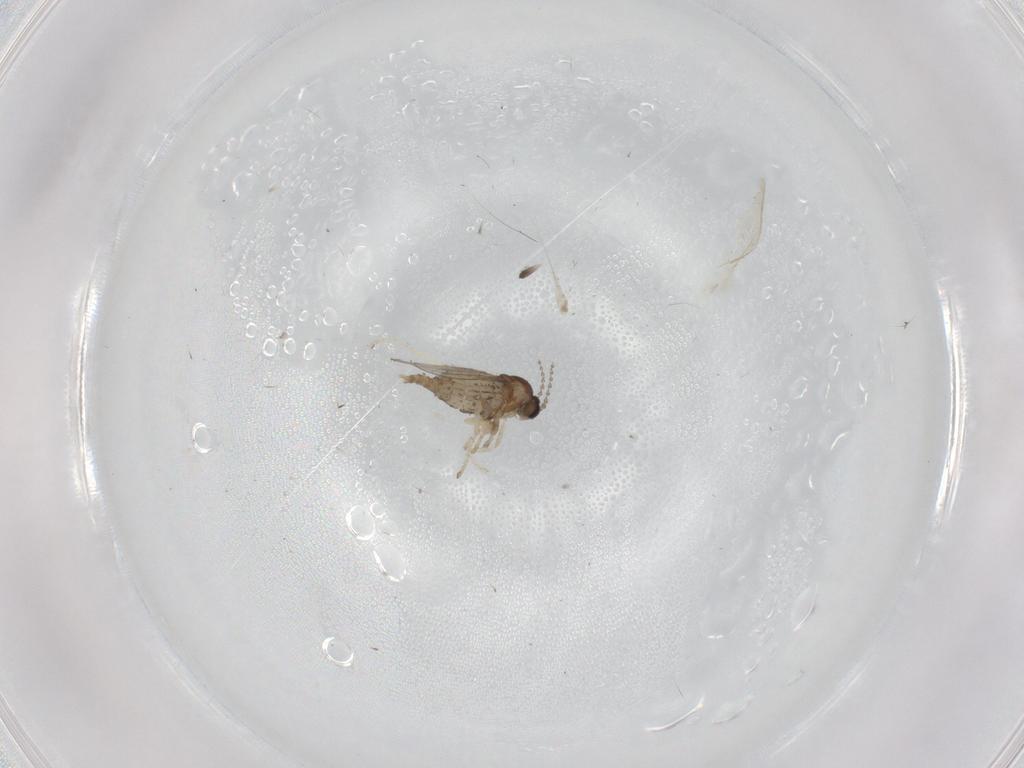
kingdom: Animalia
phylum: Arthropoda
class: Insecta
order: Diptera
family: Cecidomyiidae
